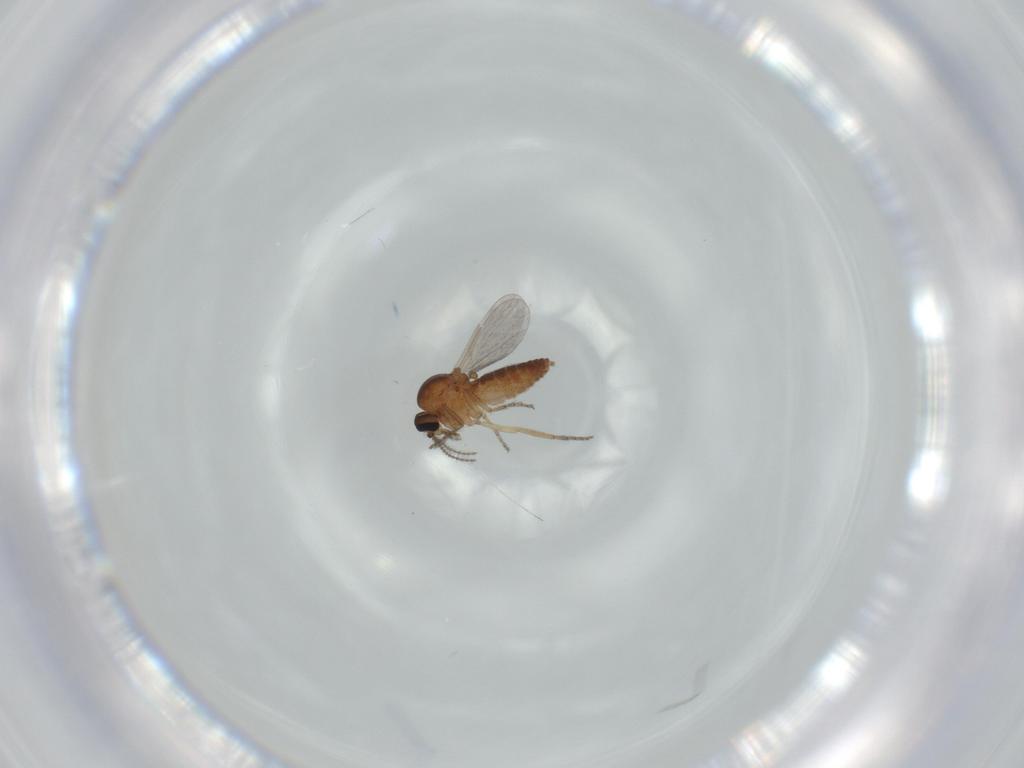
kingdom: Animalia
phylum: Arthropoda
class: Insecta
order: Diptera
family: Ceratopogonidae
